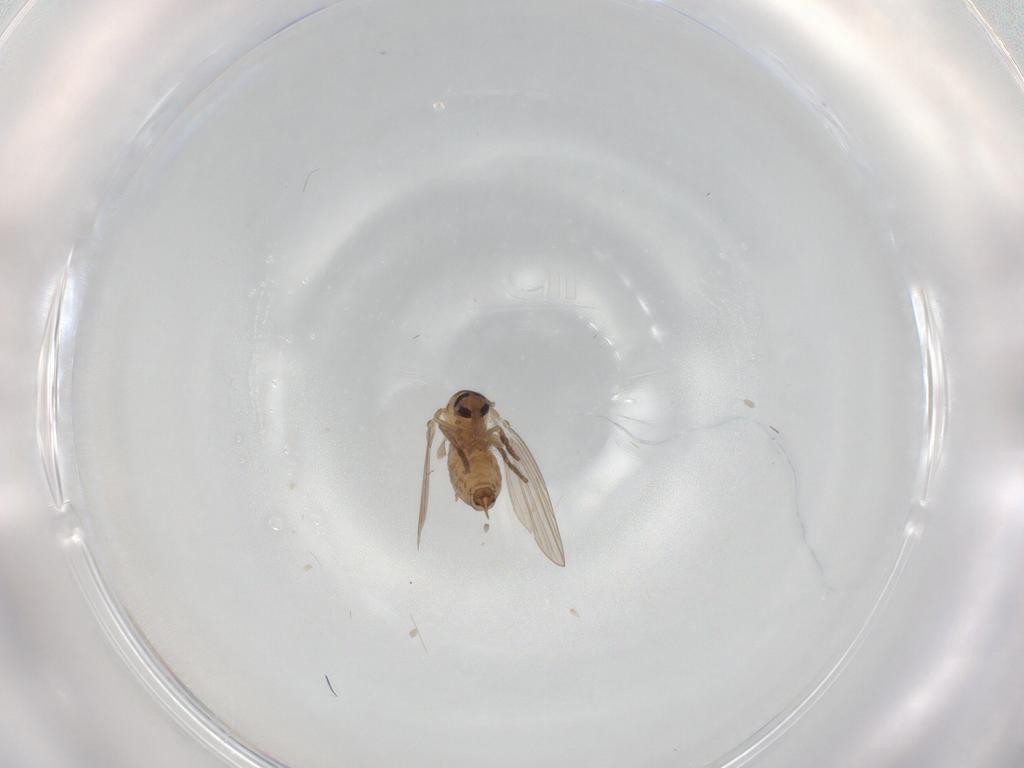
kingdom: Animalia
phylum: Arthropoda
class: Insecta
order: Diptera
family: Psychodidae
